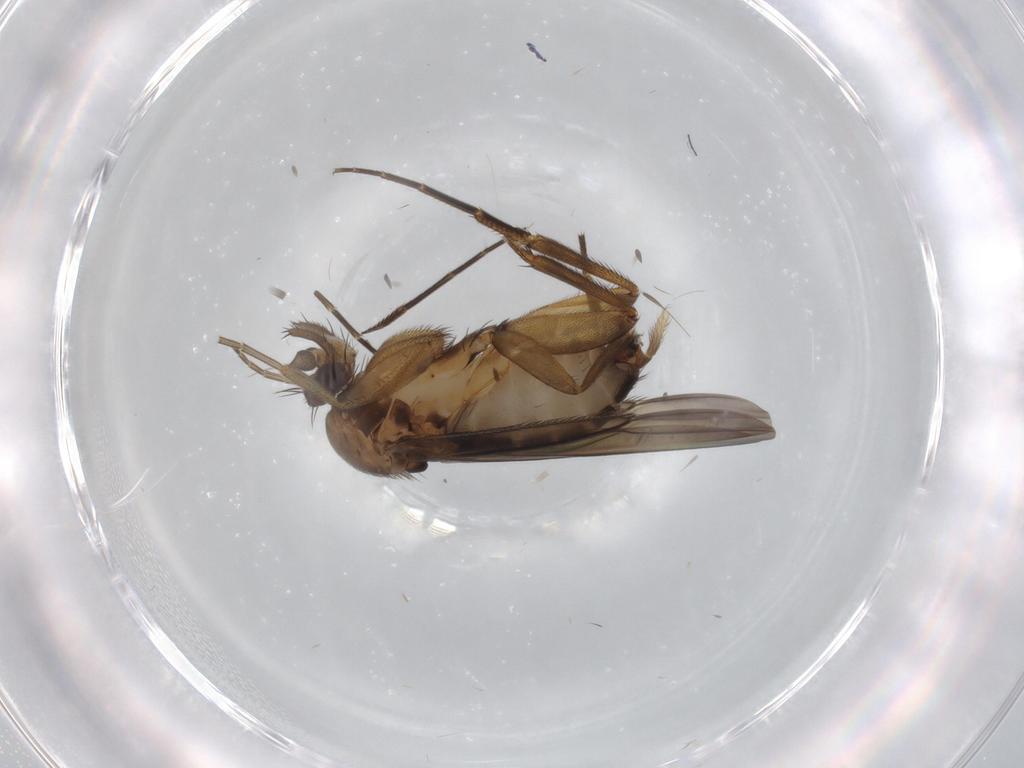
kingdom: Animalia
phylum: Arthropoda
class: Insecta
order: Diptera
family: Phoridae
